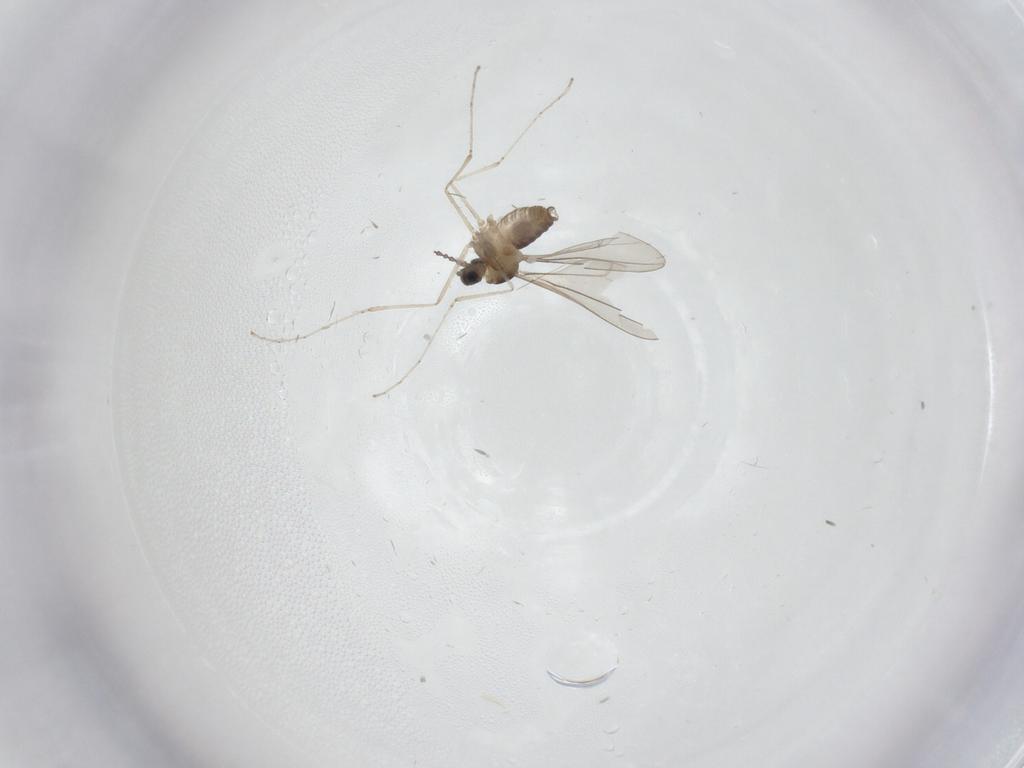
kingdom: Animalia
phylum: Arthropoda
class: Insecta
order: Diptera
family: Cecidomyiidae
